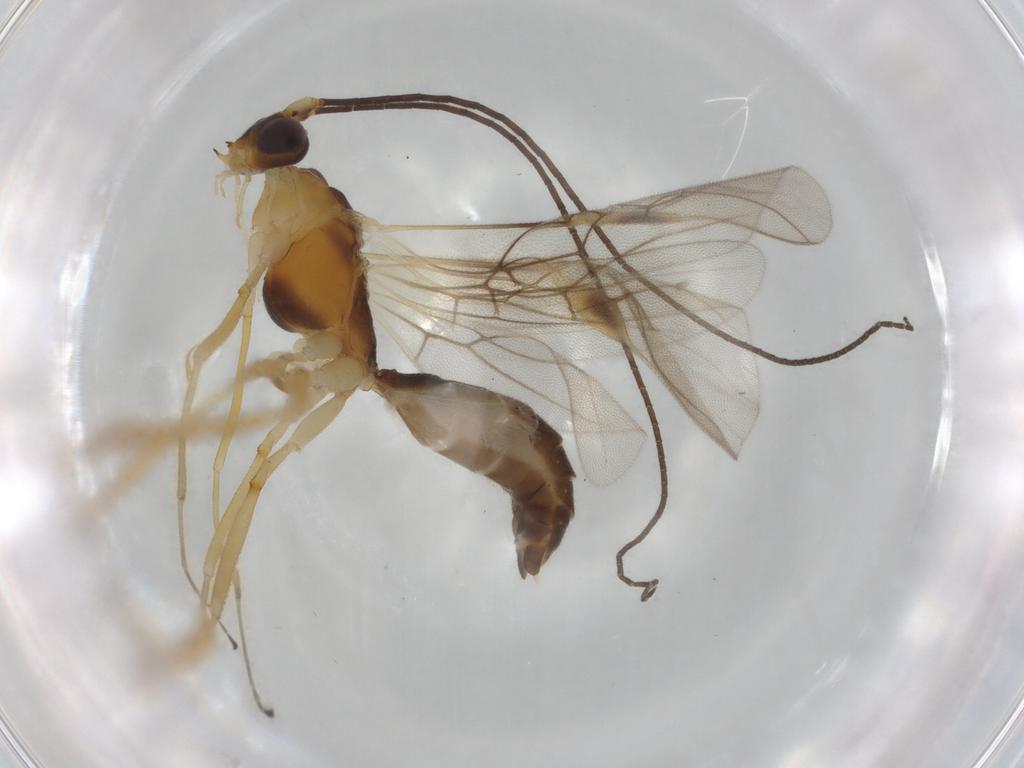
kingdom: Animalia
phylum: Arthropoda
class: Insecta
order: Hymenoptera
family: Braconidae
